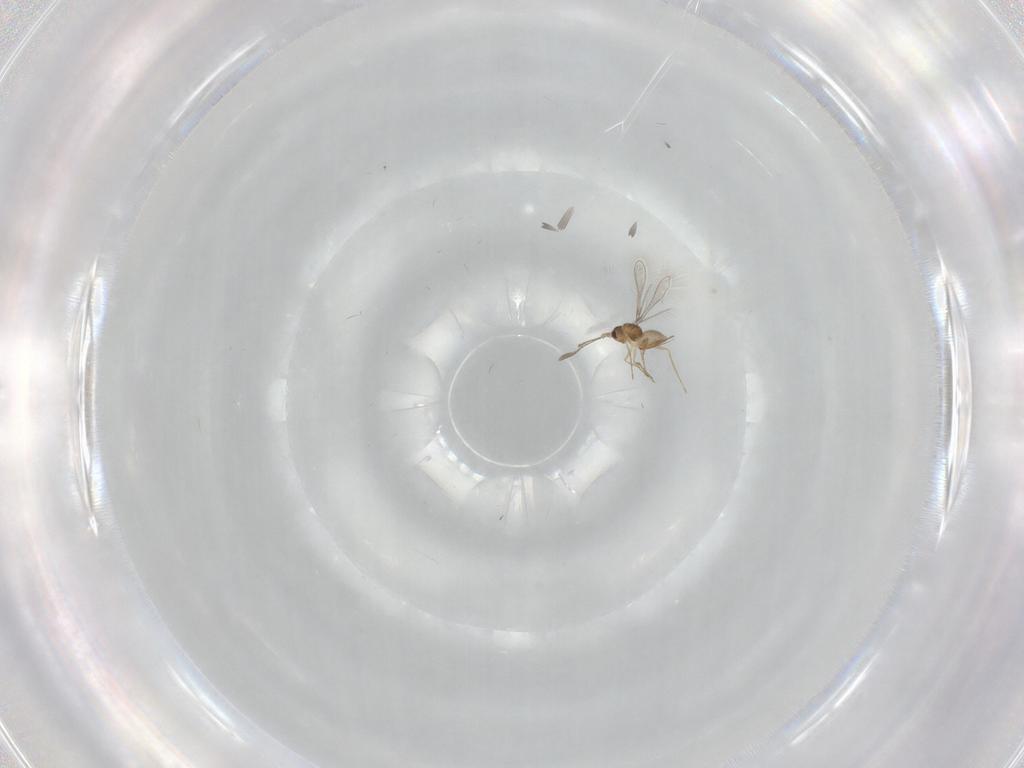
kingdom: Animalia
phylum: Arthropoda
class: Insecta
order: Hymenoptera
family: Mymaridae
